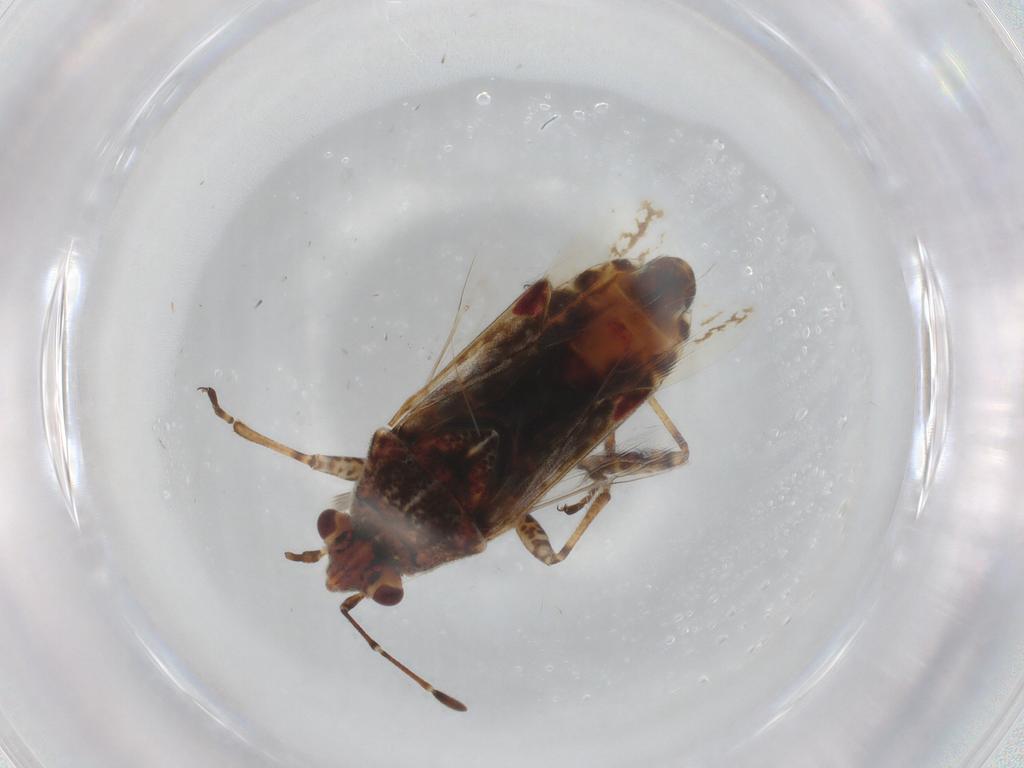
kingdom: Animalia
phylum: Arthropoda
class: Insecta
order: Hemiptera
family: Lygaeidae
